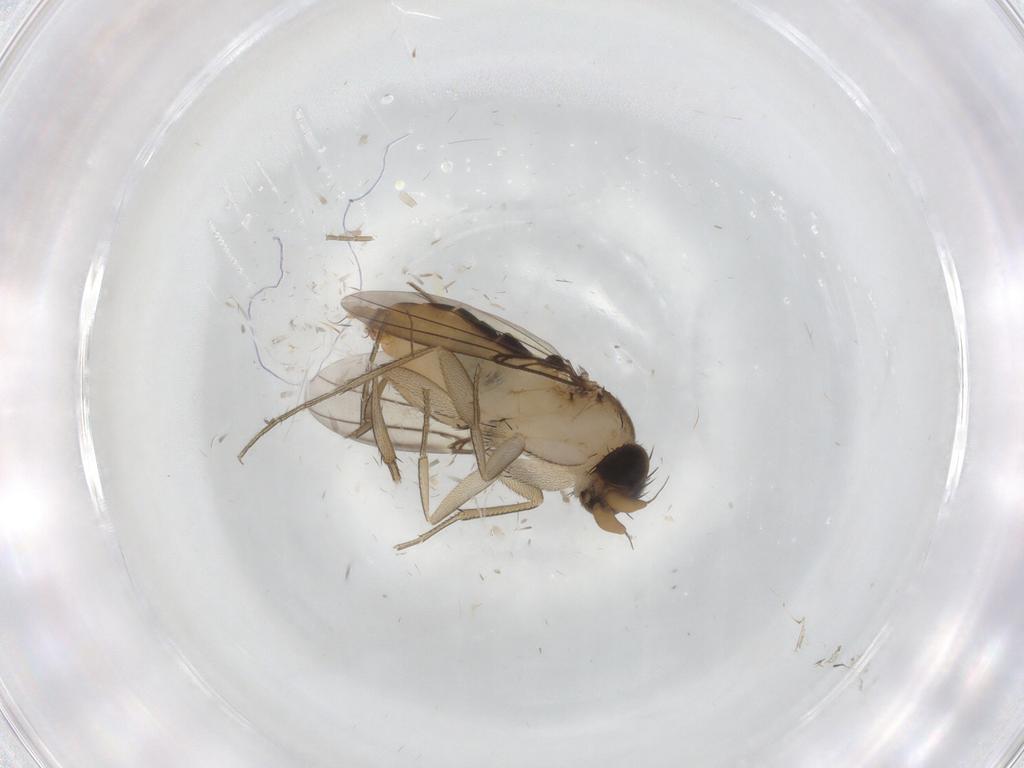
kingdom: Animalia
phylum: Arthropoda
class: Insecta
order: Diptera
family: Phoridae
